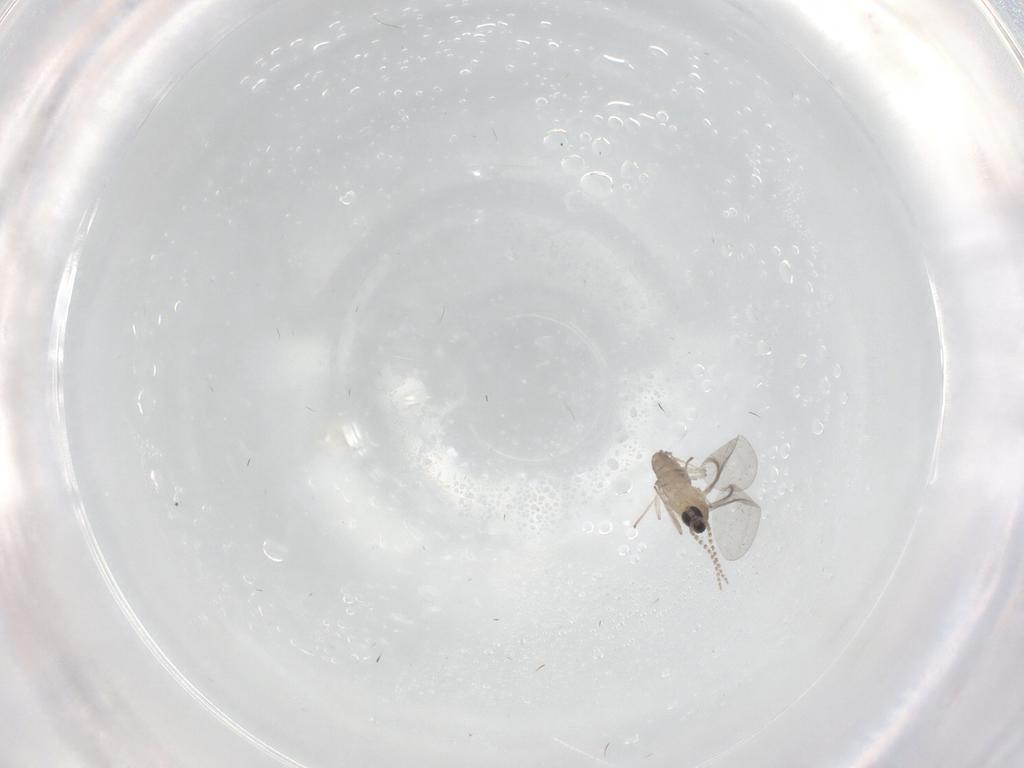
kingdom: Animalia
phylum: Arthropoda
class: Insecta
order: Diptera
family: Cecidomyiidae
